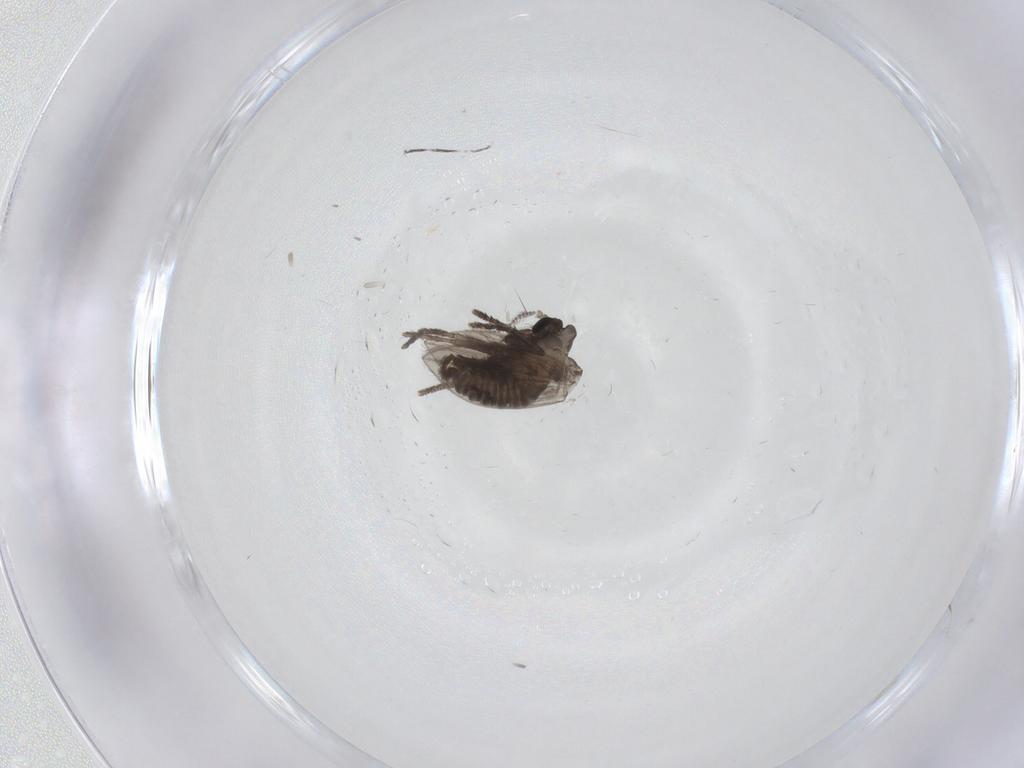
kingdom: Animalia
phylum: Arthropoda
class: Insecta
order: Diptera
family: Psychodidae
